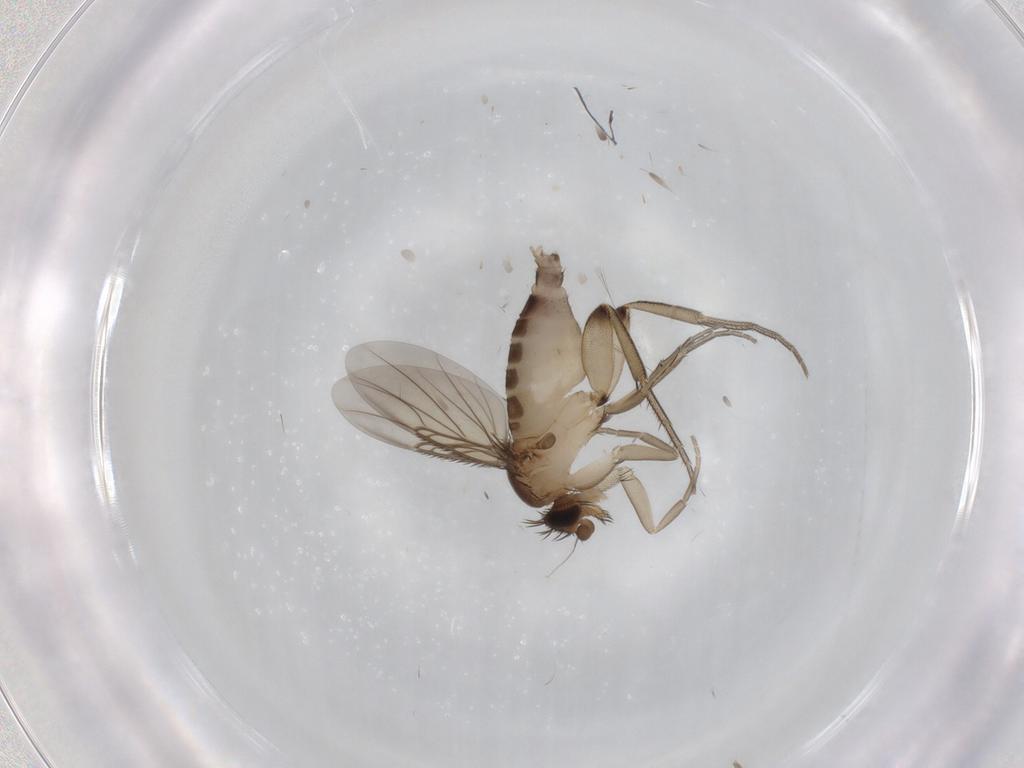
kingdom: Animalia
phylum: Arthropoda
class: Insecta
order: Diptera
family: Phoridae
